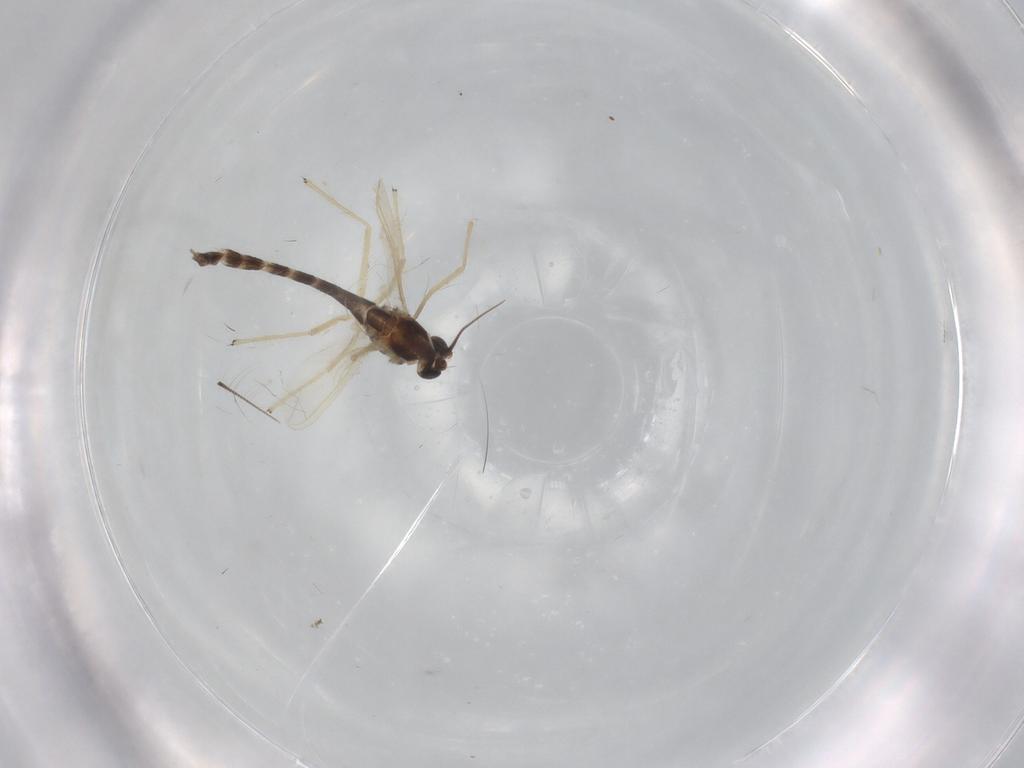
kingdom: Animalia
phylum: Arthropoda
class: Insecta
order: Diptera
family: Chironomidae
